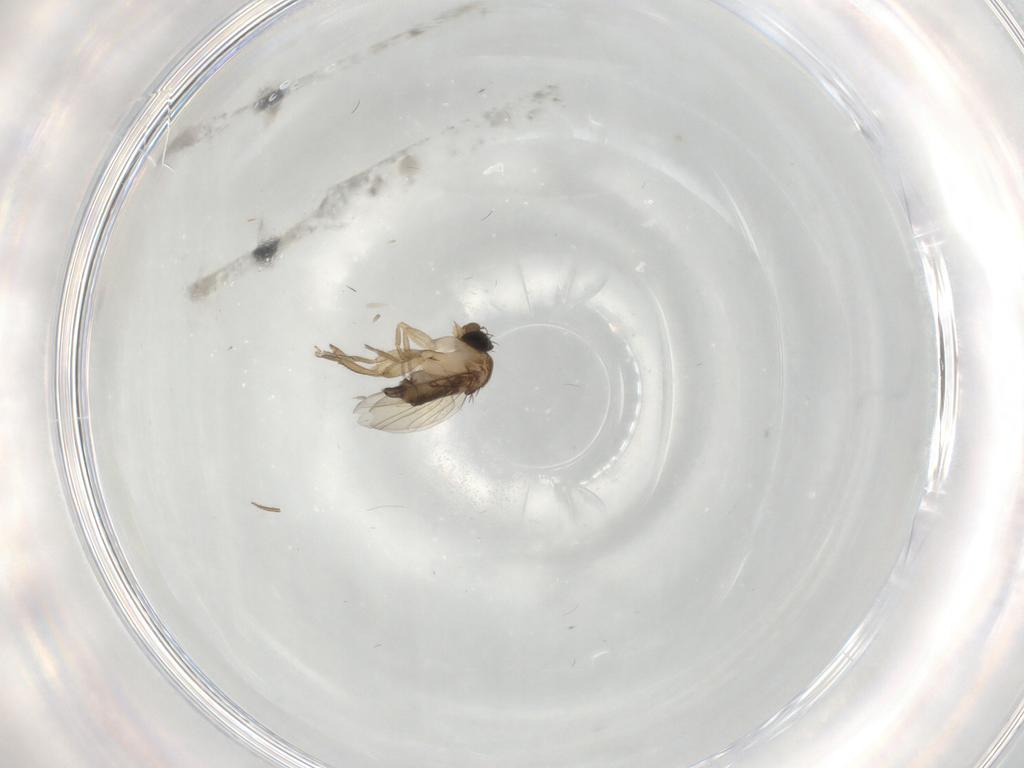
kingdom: Animalia
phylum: Arthropoda
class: Insecta
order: Diptera
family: Phoridae
